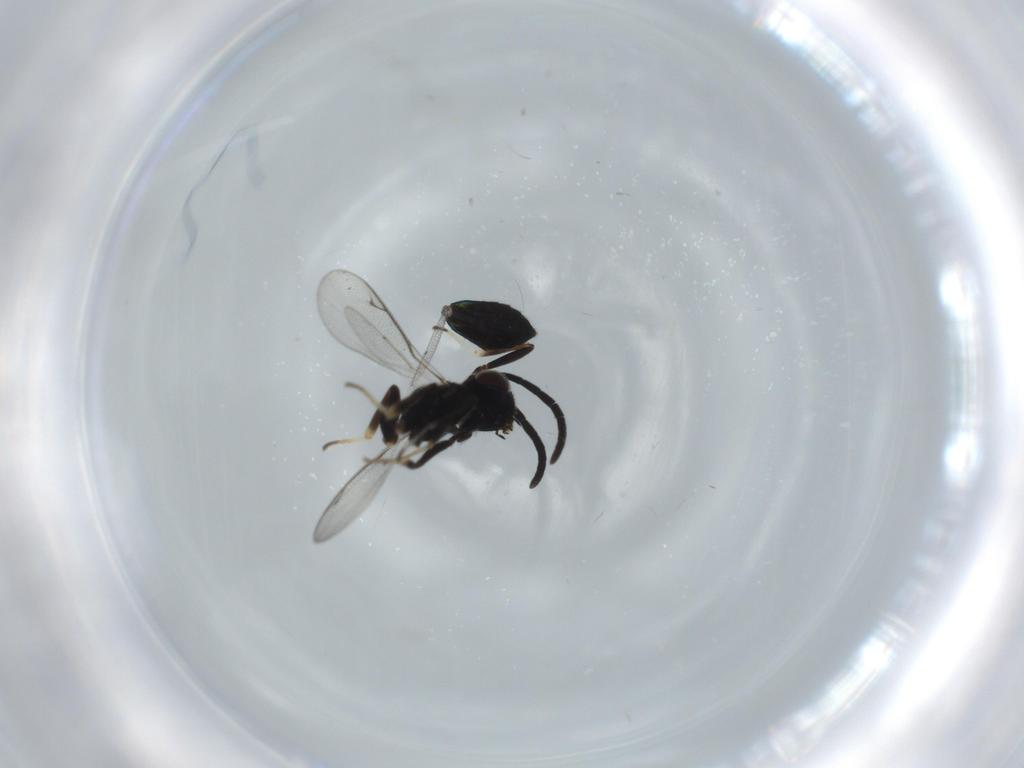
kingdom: Animalia
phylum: Arthropoda
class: Insecta
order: Hymenoptera
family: Eupelmidae
